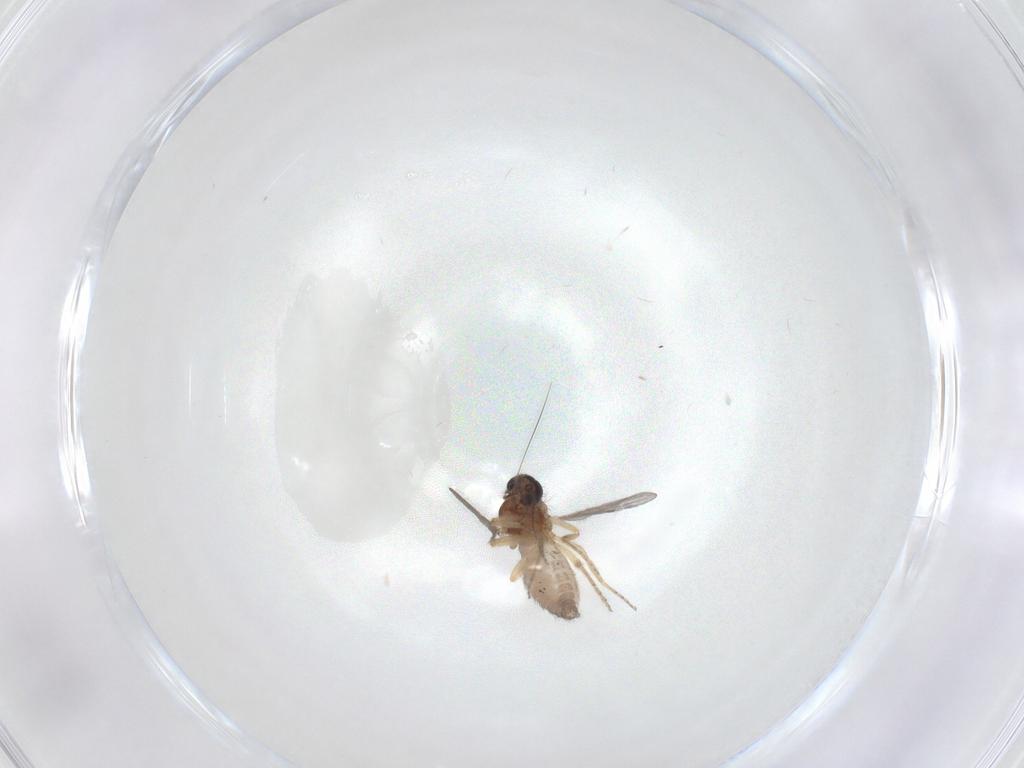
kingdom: Animalia
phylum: Arthropoda
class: Insecta
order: Diptera
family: Ceratopogonidae
